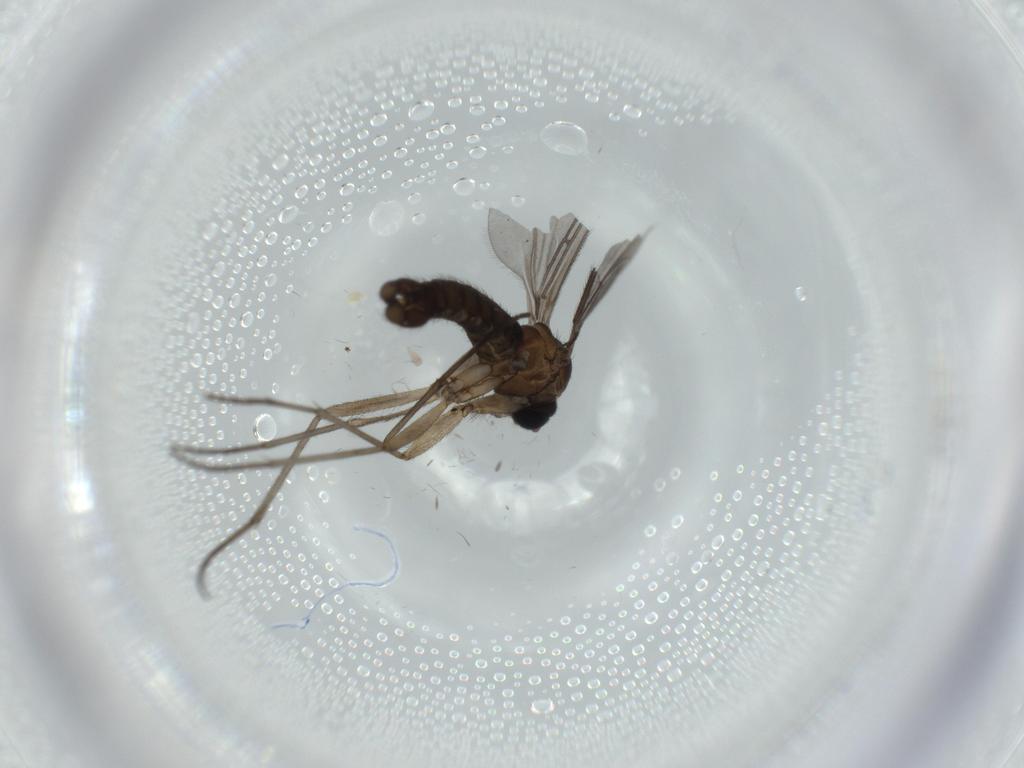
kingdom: Animalia
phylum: Arthropoda
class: Insecta
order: Diptera
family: Sciaridae
